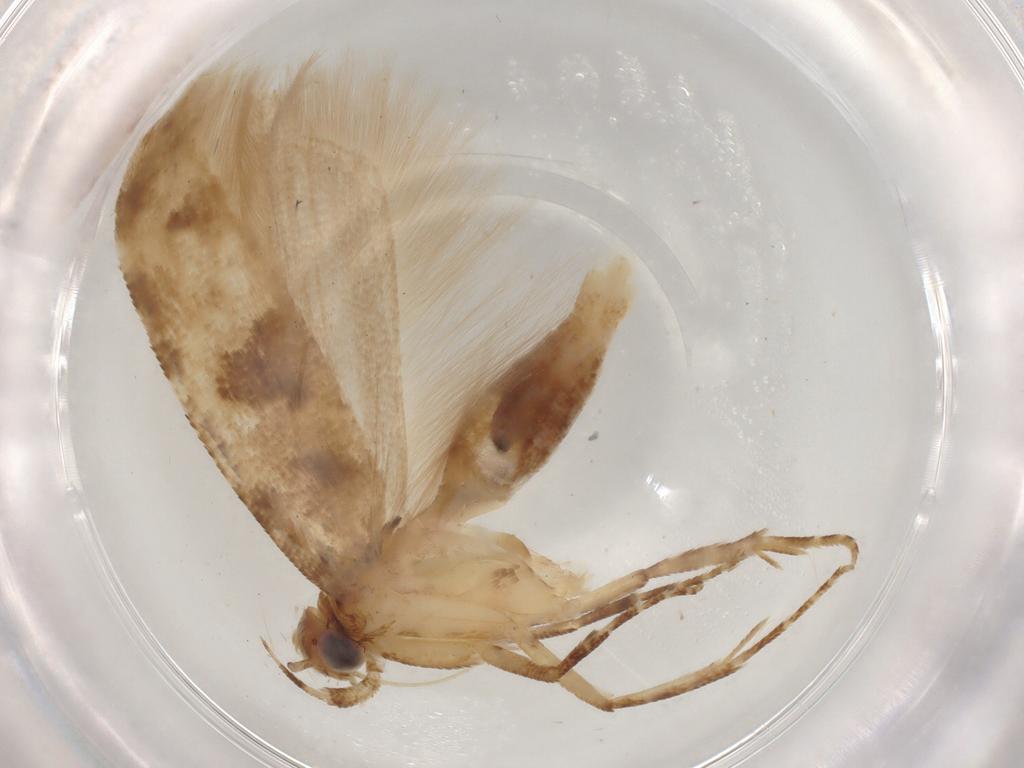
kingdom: Animalia
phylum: Arthropoda
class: Insecta
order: Lepidoptera
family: Gelechiidae
